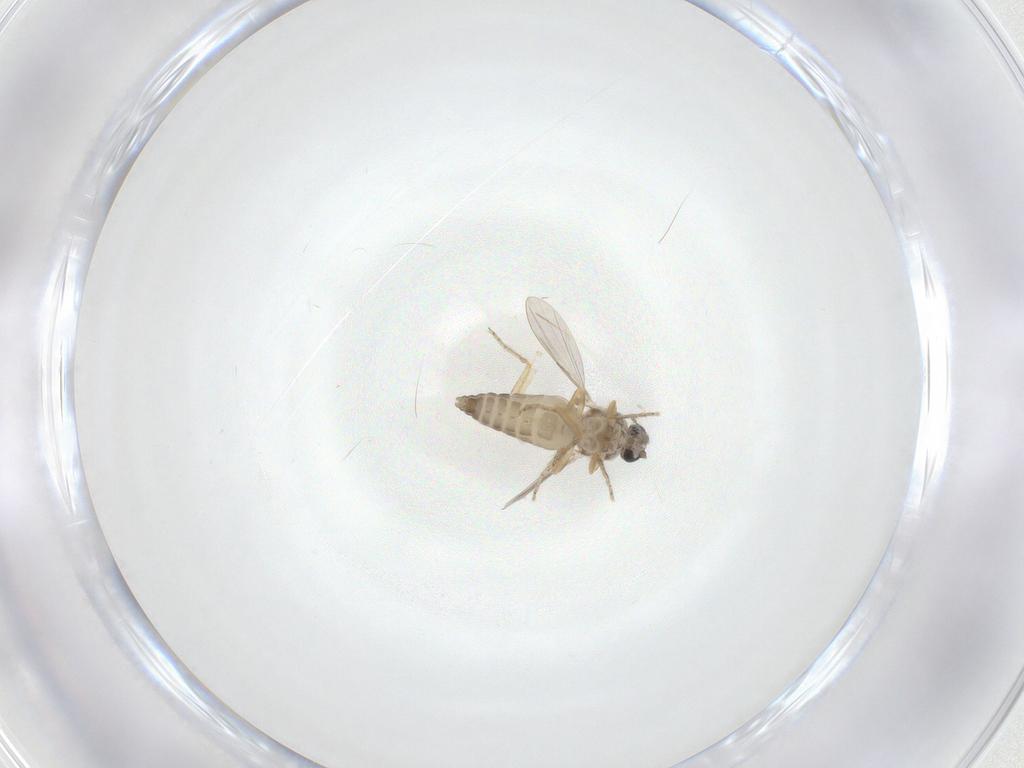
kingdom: Animalia
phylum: Arthropoda
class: Insecta
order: Diptera
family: Ceratopogonidae
